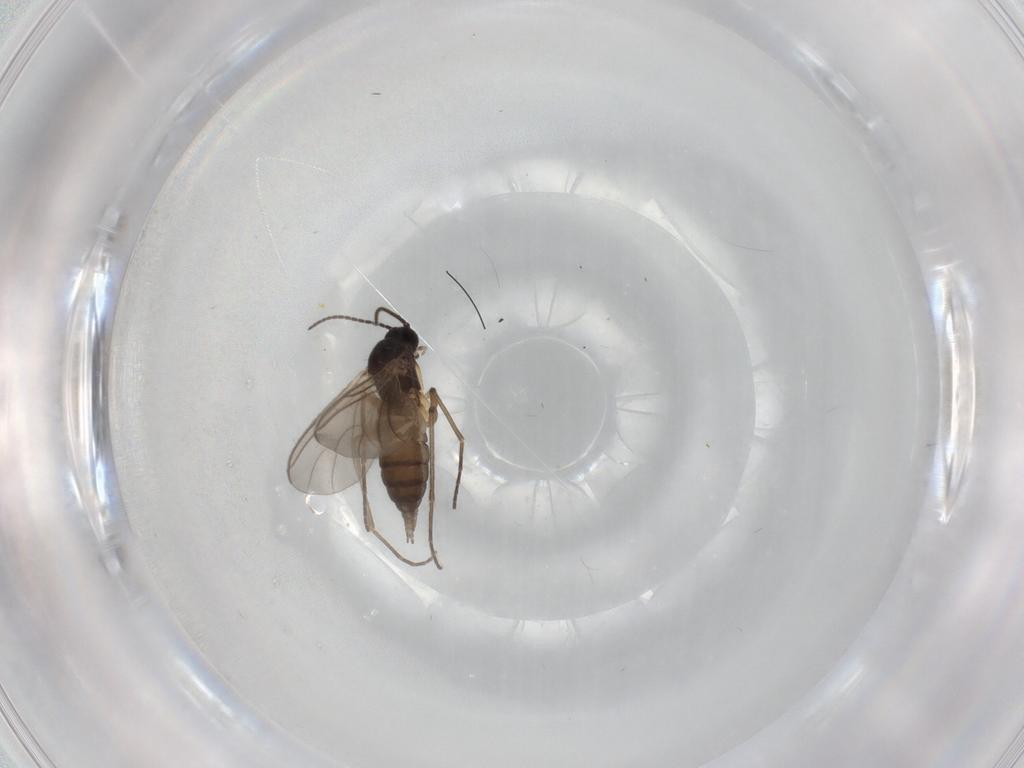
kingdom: Animalia
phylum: Arthropoda
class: Insecta
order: Diptera
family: Sciaridae
